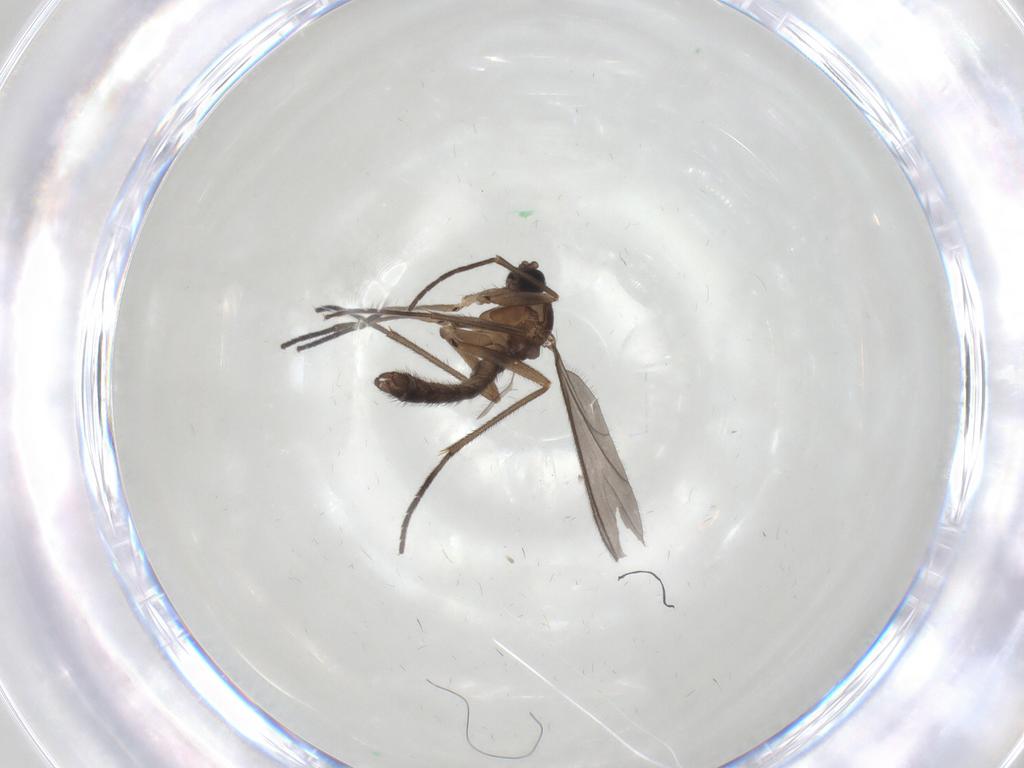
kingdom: Animalia
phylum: Arthropoda
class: Insecta
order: Diptera
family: Sciaridae
